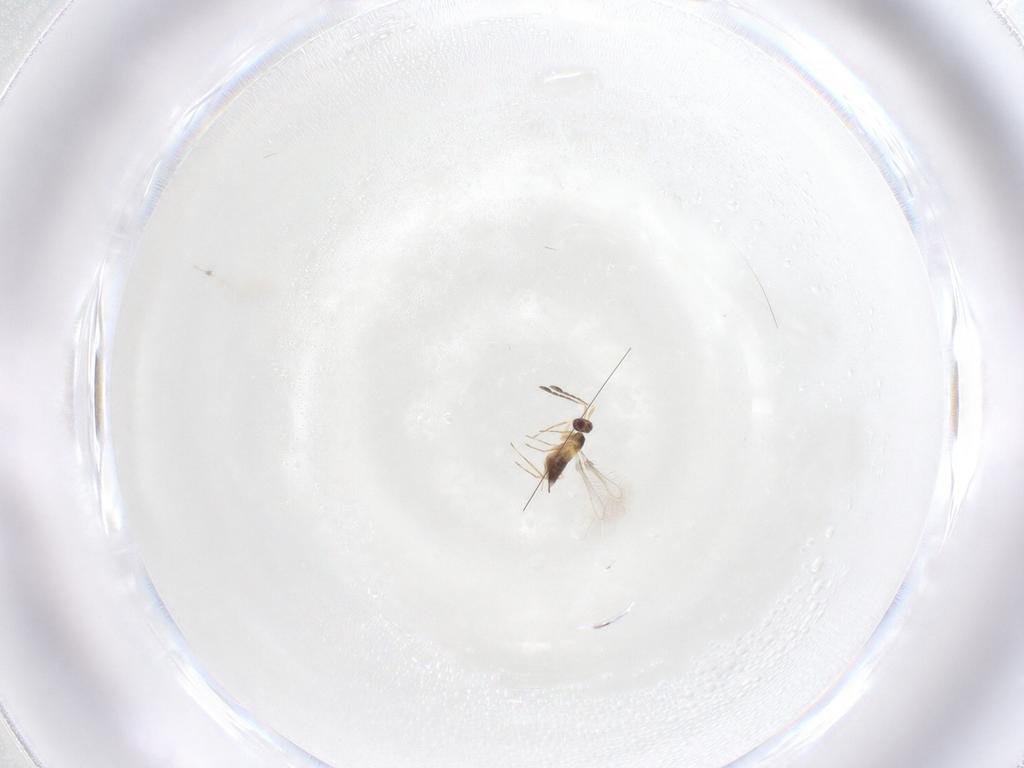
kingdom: Animalia
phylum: Arthropoda
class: Insecta
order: Hymenoptera
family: Mymaridae
